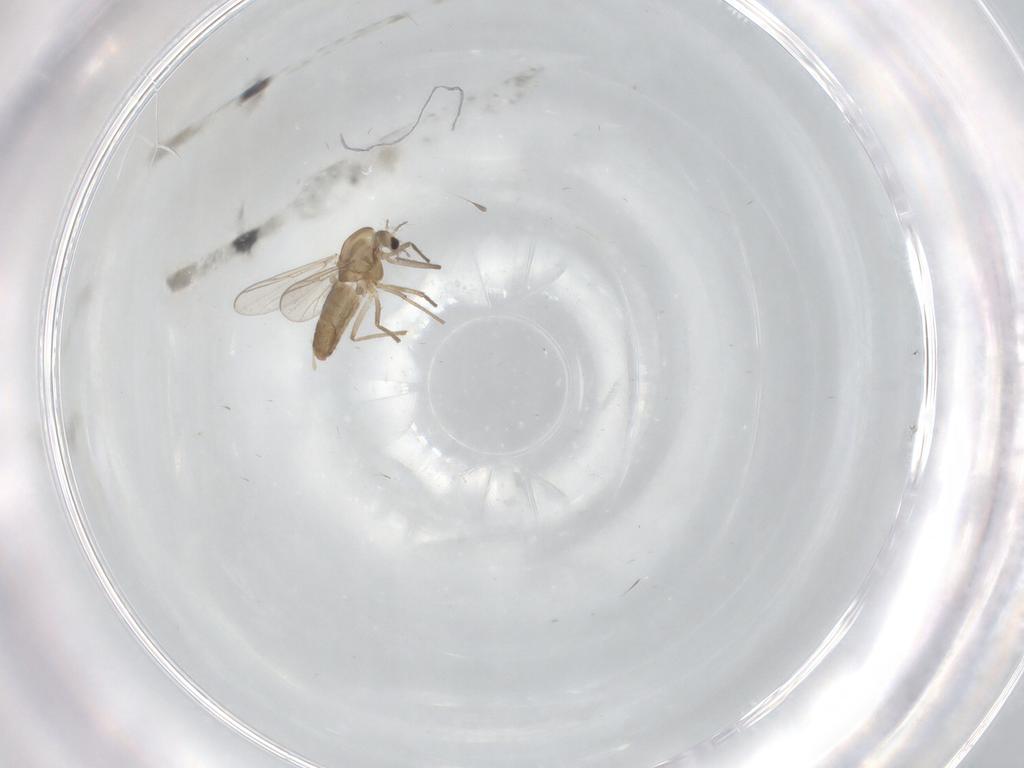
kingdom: Animalia
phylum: Arthropoda
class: Insecta
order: Diptera
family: Chironomidae
